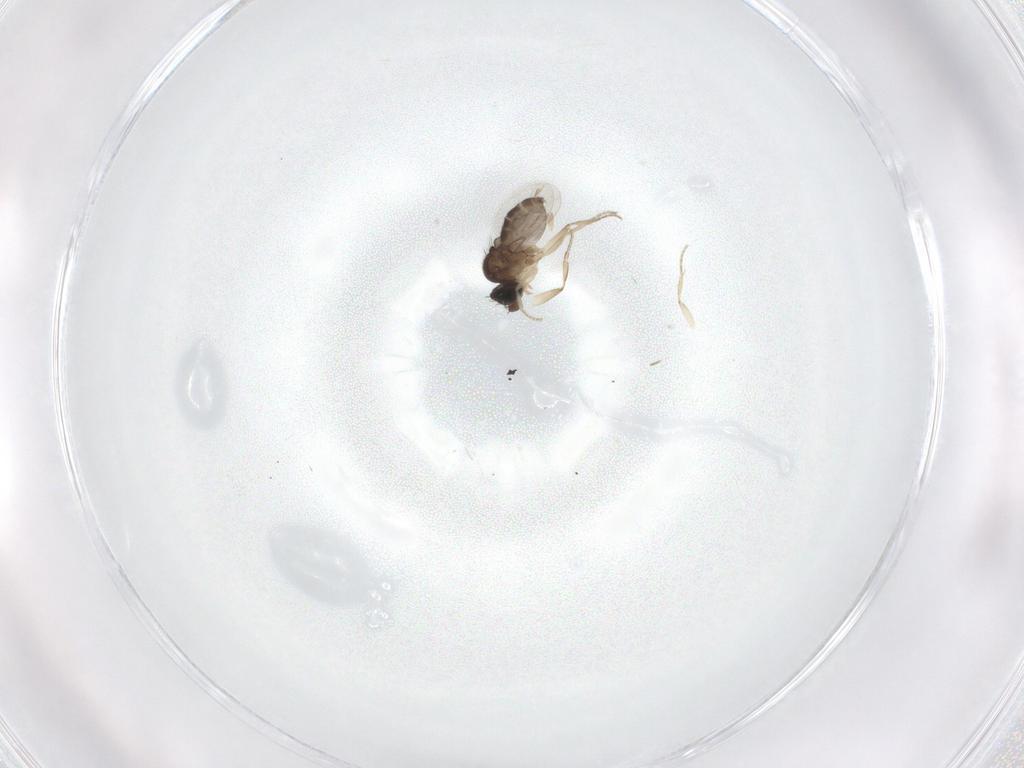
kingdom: Animalia
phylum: Arthropoda
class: Insecta
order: Diptera
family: Phoridae
